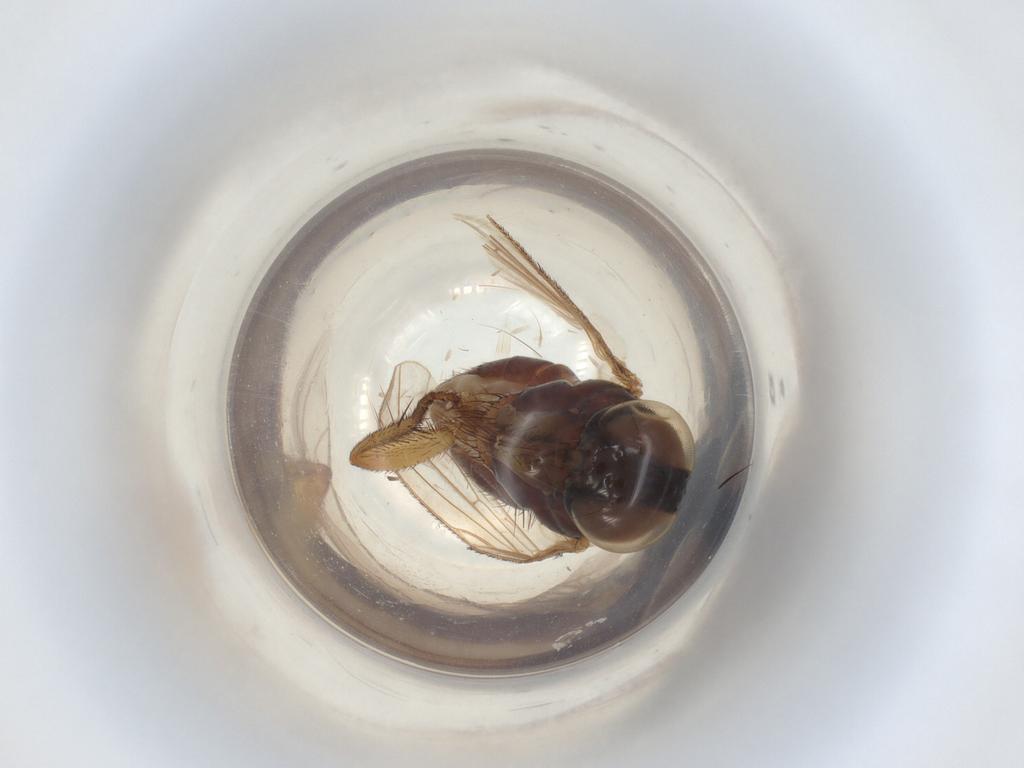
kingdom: Animalia
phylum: Arthropoda
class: Insecta
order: Diptera
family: Muscidae
